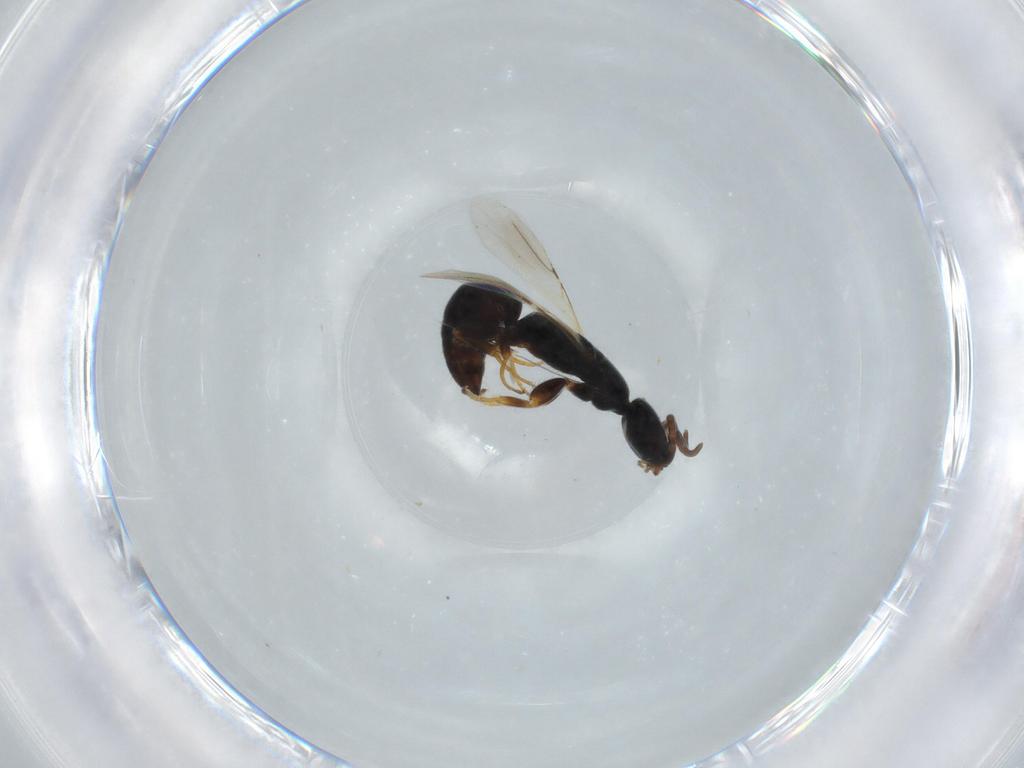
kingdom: Animalia
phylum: Arthropoda
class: Insecta
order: Hymenoptera
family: Bethylidae
